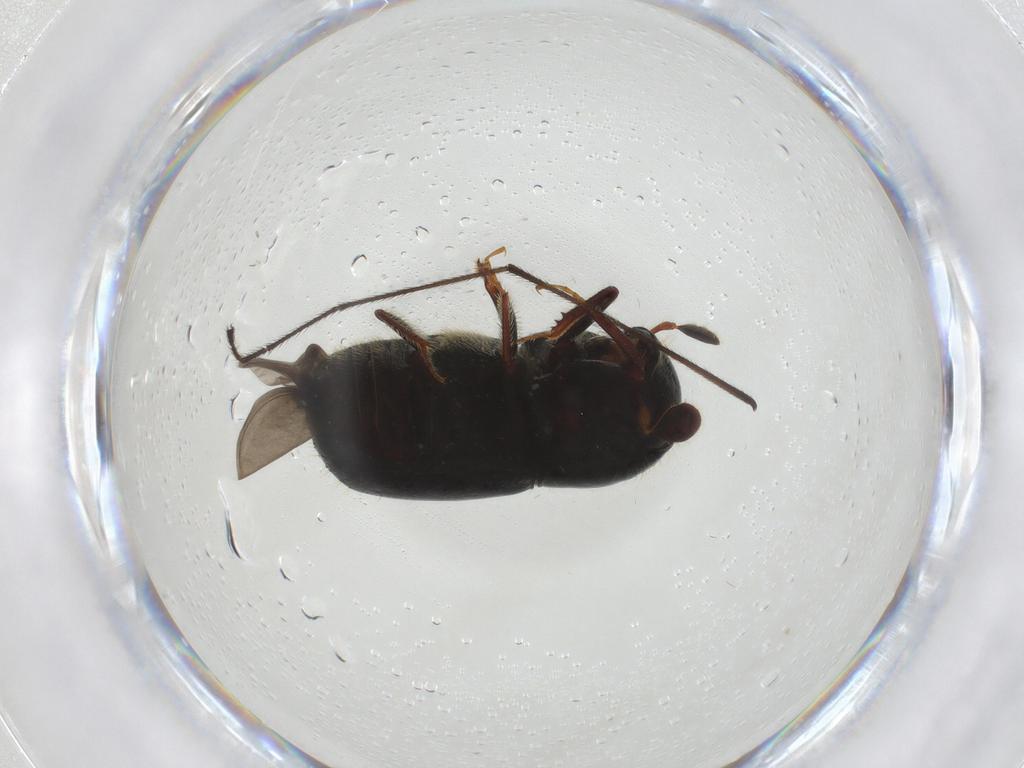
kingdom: Animalia
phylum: Arthropoda
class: Insecta
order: Coleoptera
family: Curculionidae
